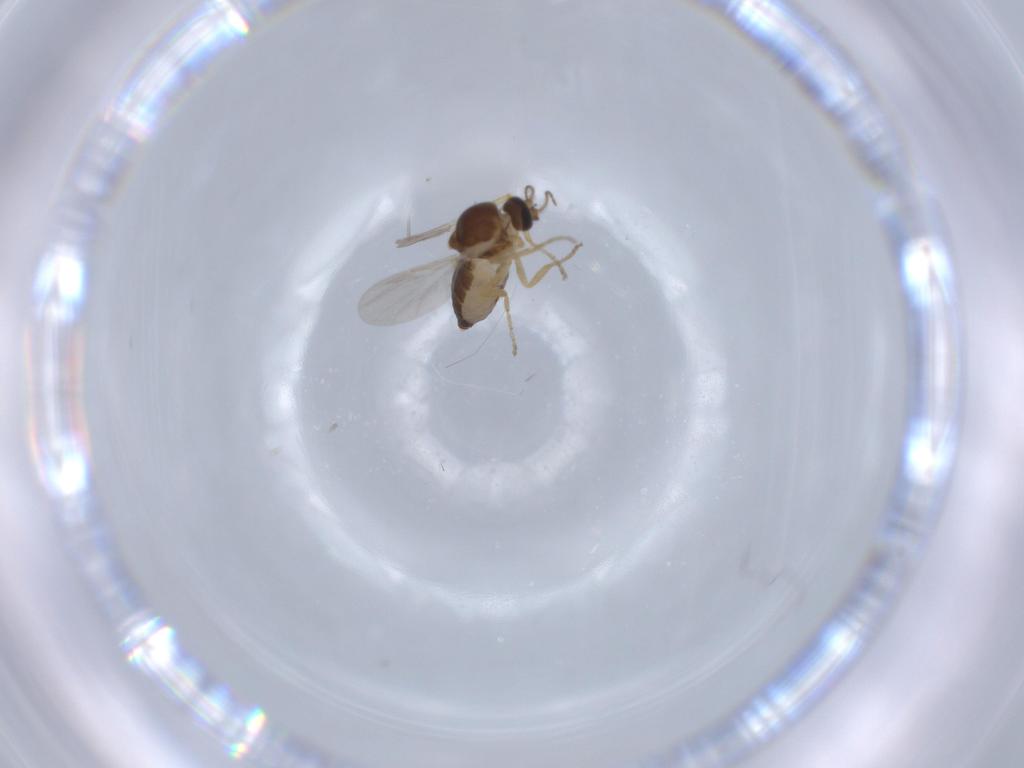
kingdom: Animalia
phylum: Arthropoda
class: Insecta
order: Diptera
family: Ceratopogonidae
